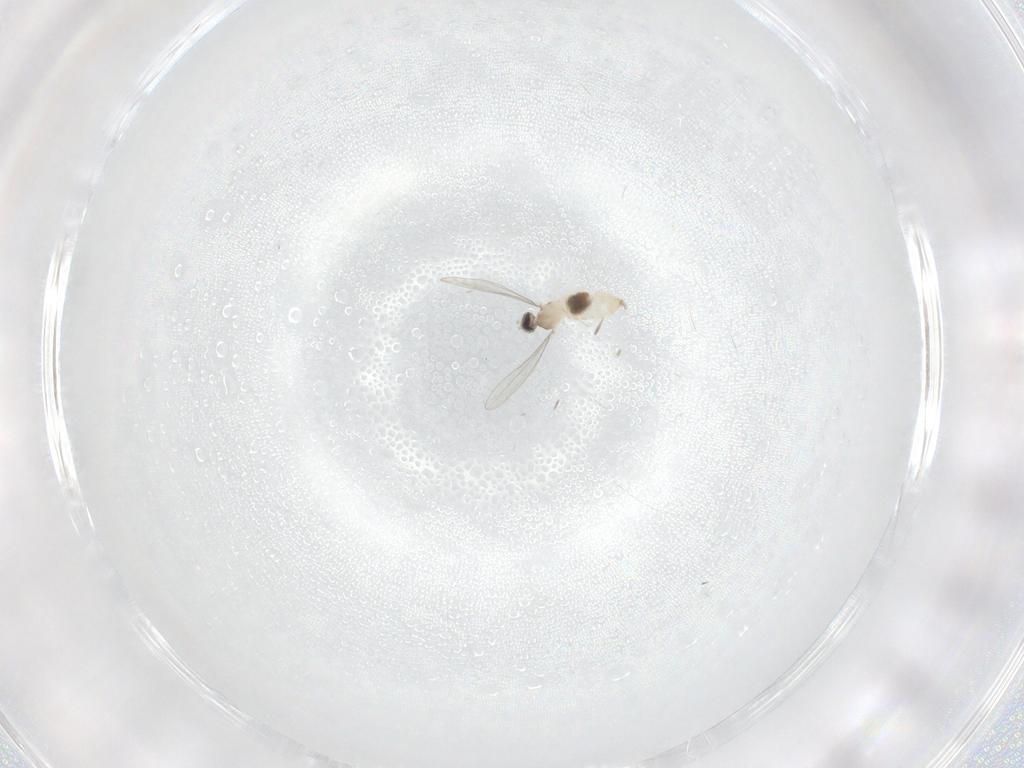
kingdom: Animalia
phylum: Arthropoda
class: Insecta
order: Diptera
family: Cecidomyiidae
